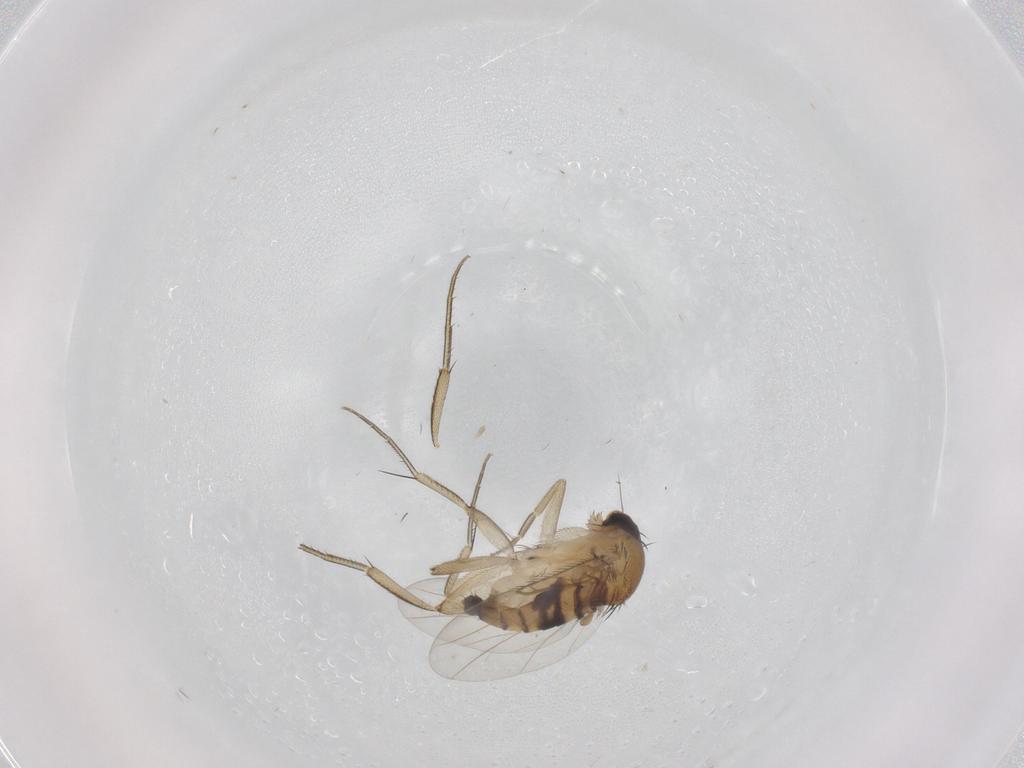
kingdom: Animalia
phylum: Arthropoda
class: Insecta
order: Diptera
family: Phoridae
